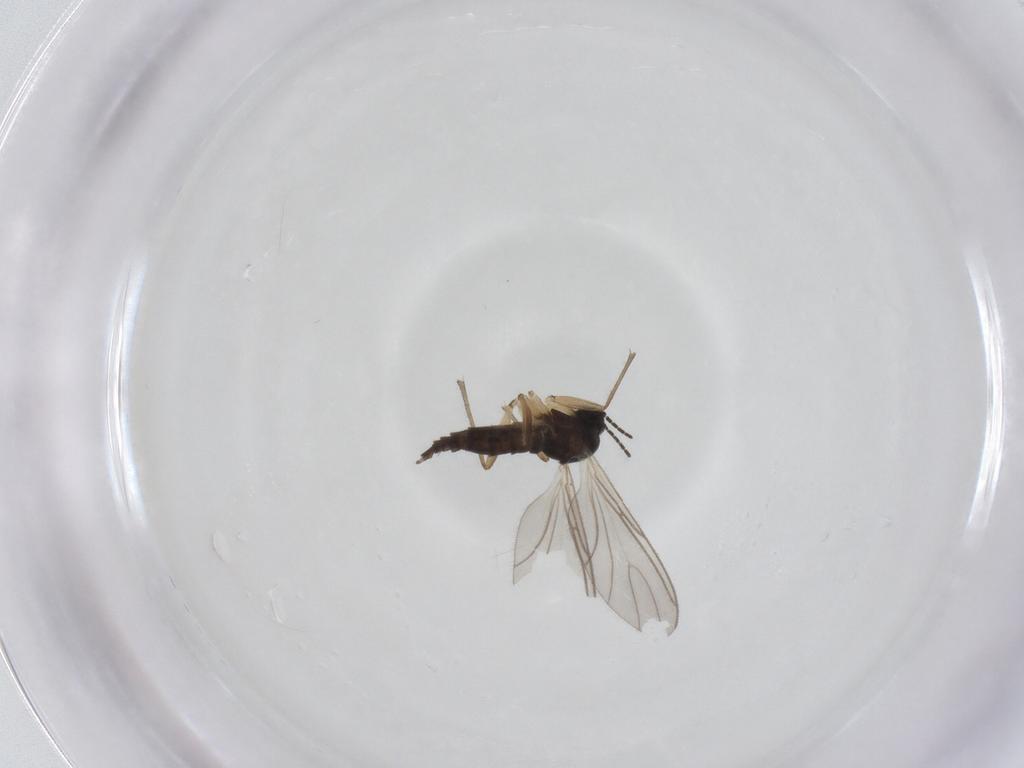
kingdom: Animalia
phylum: Arthropoda
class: Insecta
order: Diptera
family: Sciaridae
